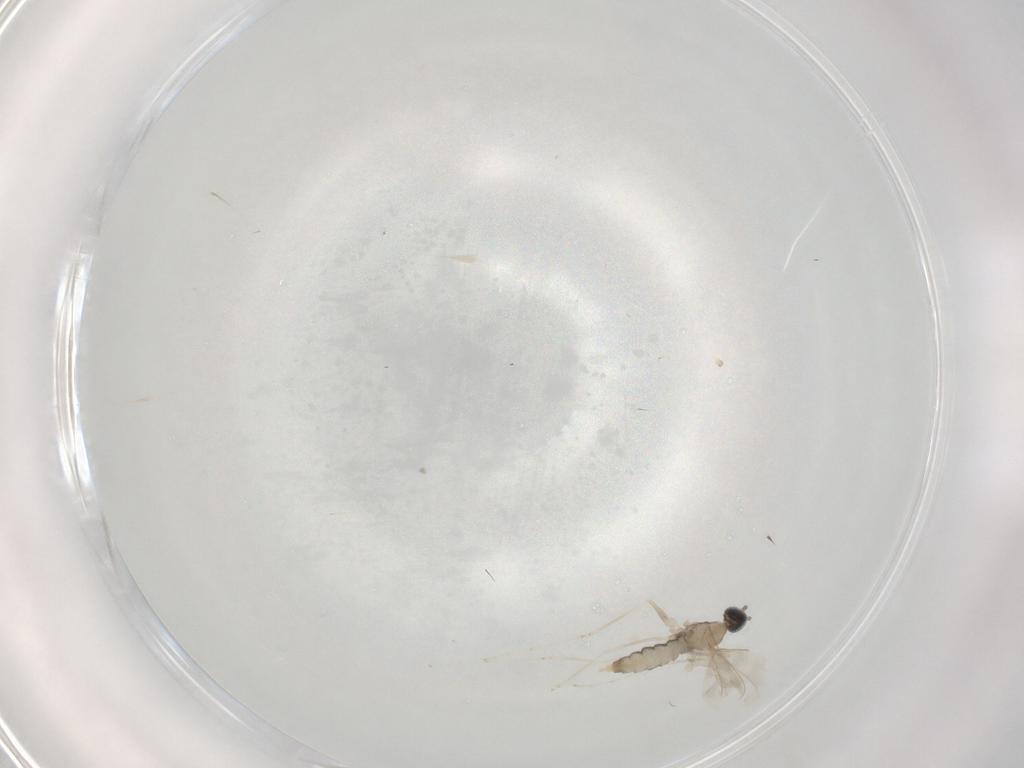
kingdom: Animalia
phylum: Arthropoda
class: Insecta
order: Diptera
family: Cecidomyiidae
